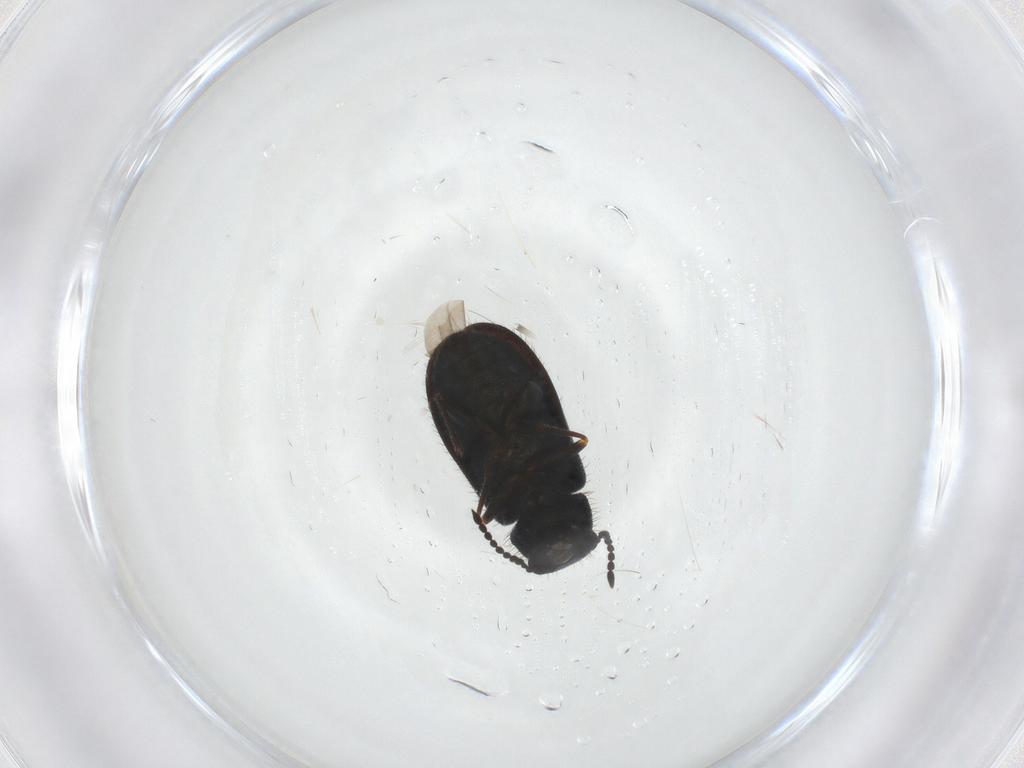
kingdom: Animalia
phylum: Arthropoda
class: Insecta
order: Coleoptera
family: Melyridae
